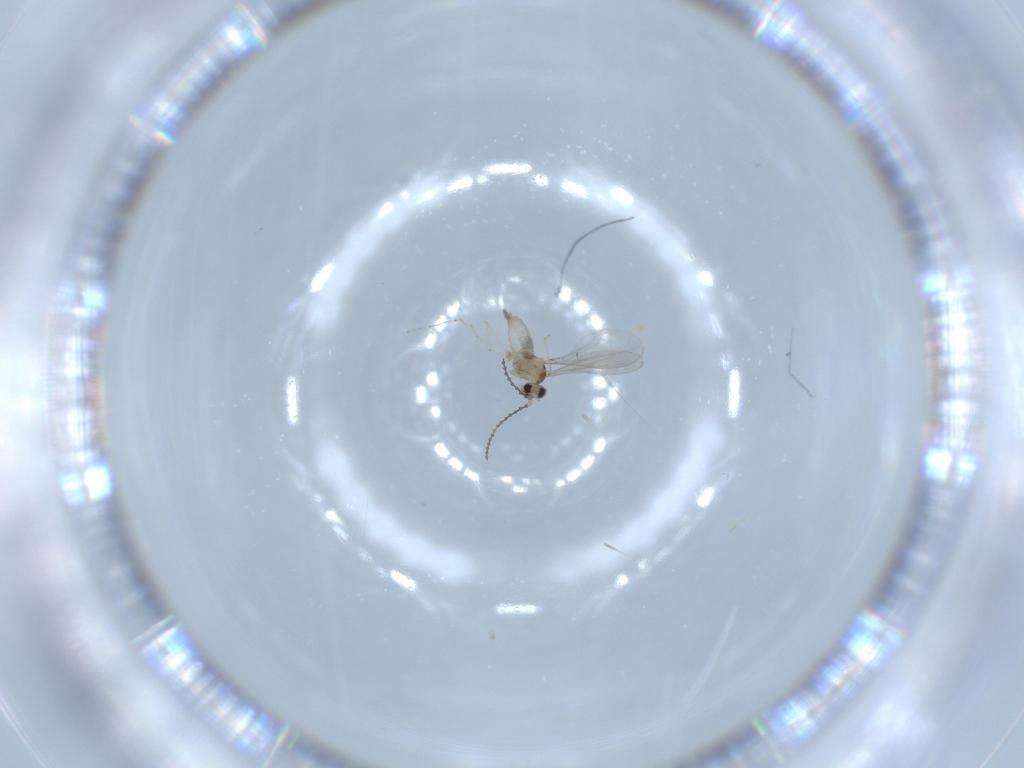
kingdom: Animalia
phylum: Arthropoda
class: Insecta
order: Diptera
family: Cecidomyiidae
